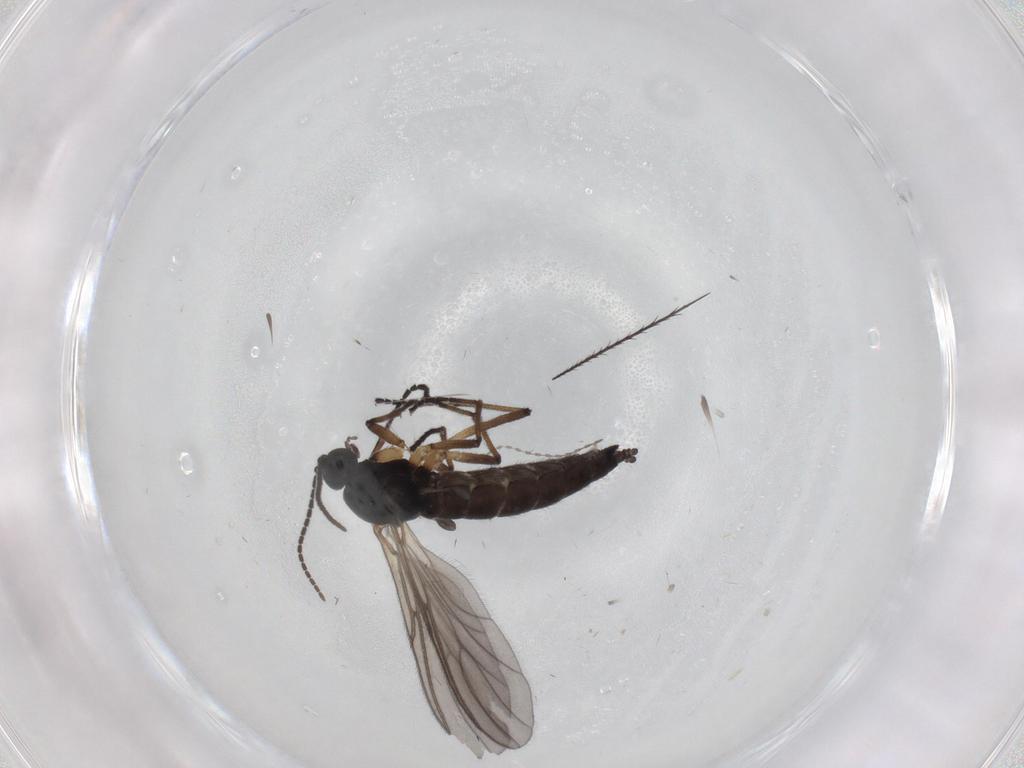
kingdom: Animalia
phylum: Arthropoda
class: Insecta
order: Diptera
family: Sciaridae
